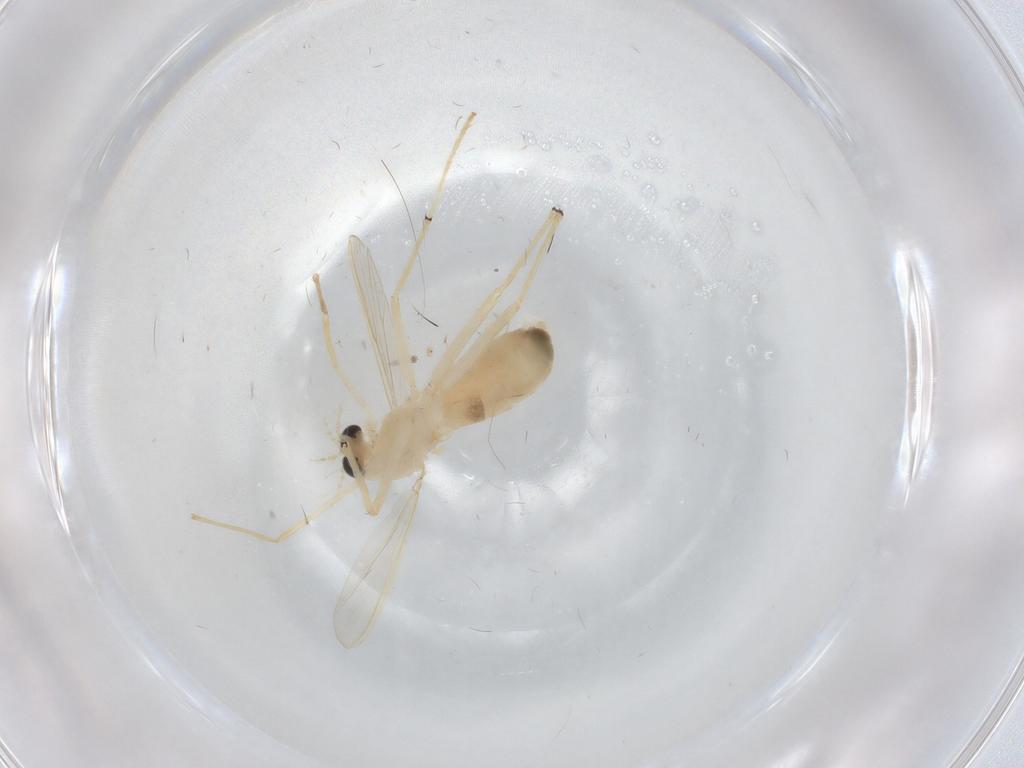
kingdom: Animalia
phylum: Arthropoda
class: Insecta
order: Diptera
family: Chironomidae
